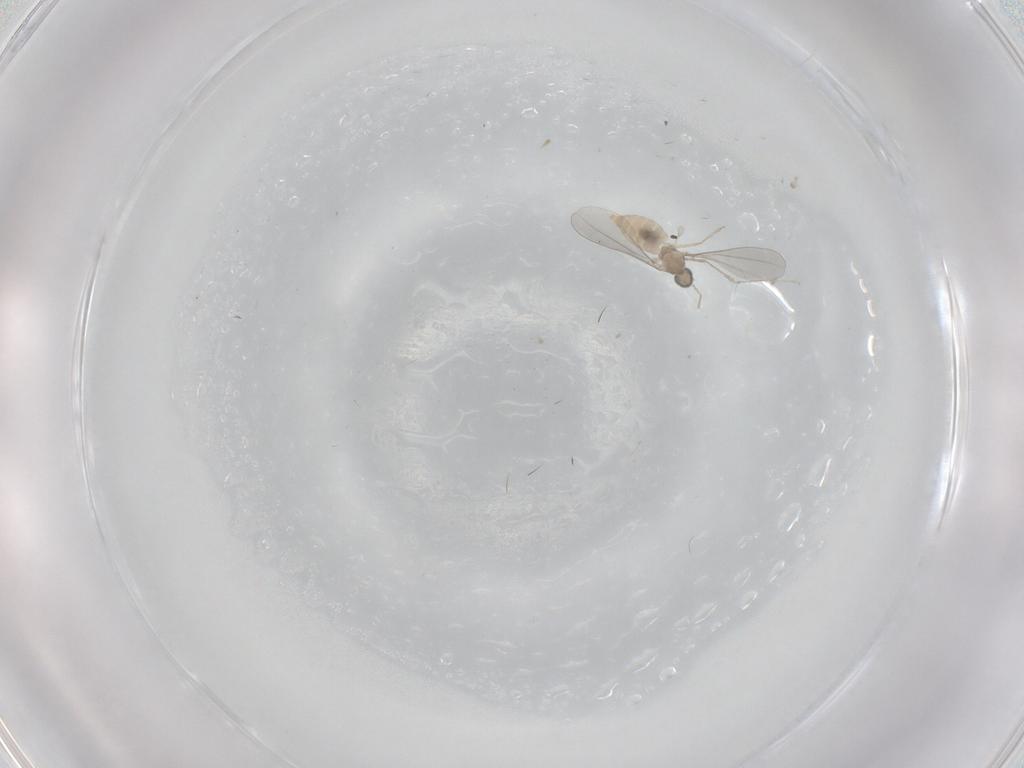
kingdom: Animalia
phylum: Arthropoda
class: Insecta
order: Diptera
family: Cecidomyiidae
